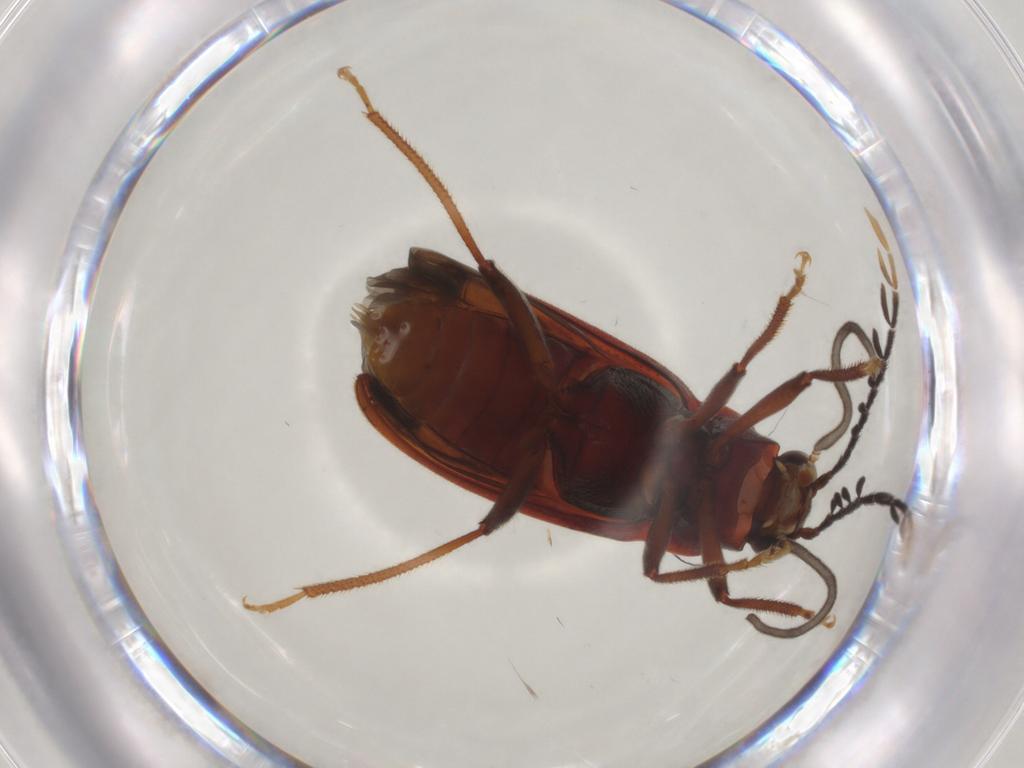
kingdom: Animalia
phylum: Arthropoda
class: Insecta
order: Coleoptera
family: Ptilodactylidae
